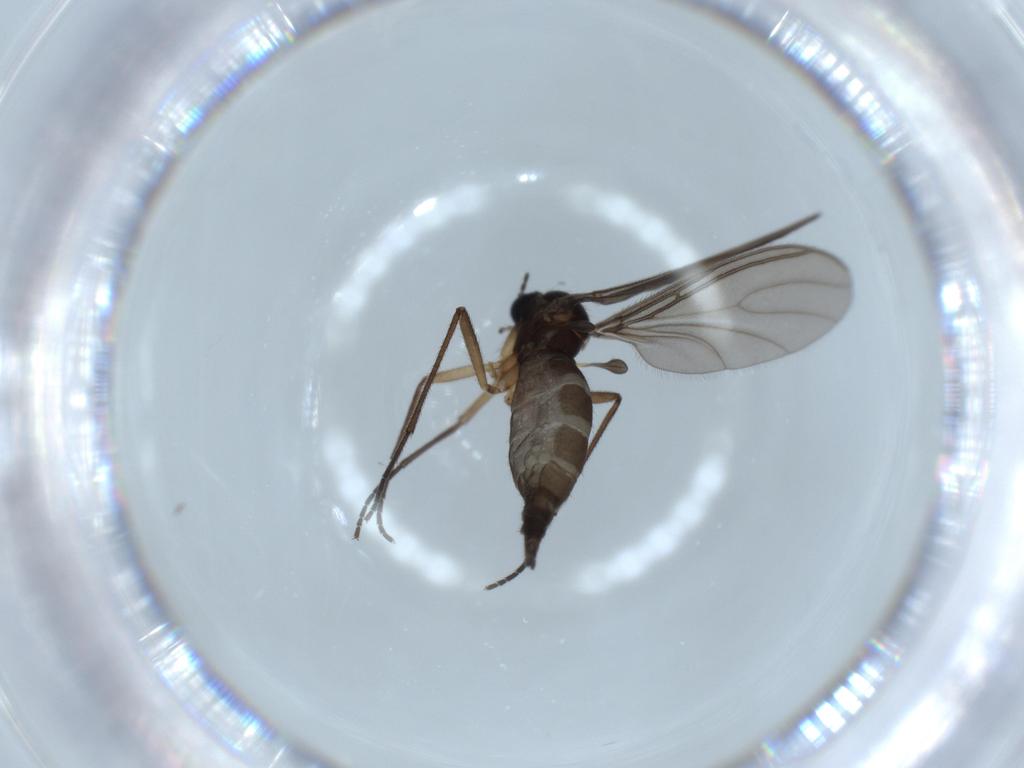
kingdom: Animalia
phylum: Arthropoda
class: Insecta
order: Diptera
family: Sciaridae
